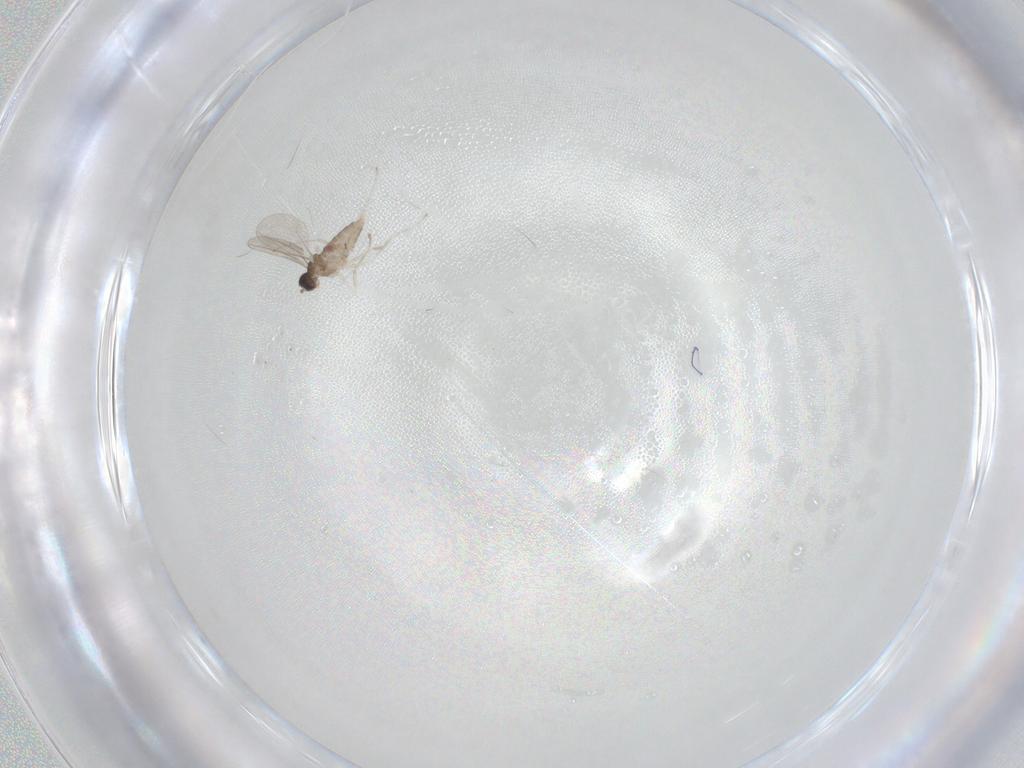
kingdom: Animalia
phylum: Arthropoda
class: Insecta
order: Diptera
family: Cecidomyiidae
